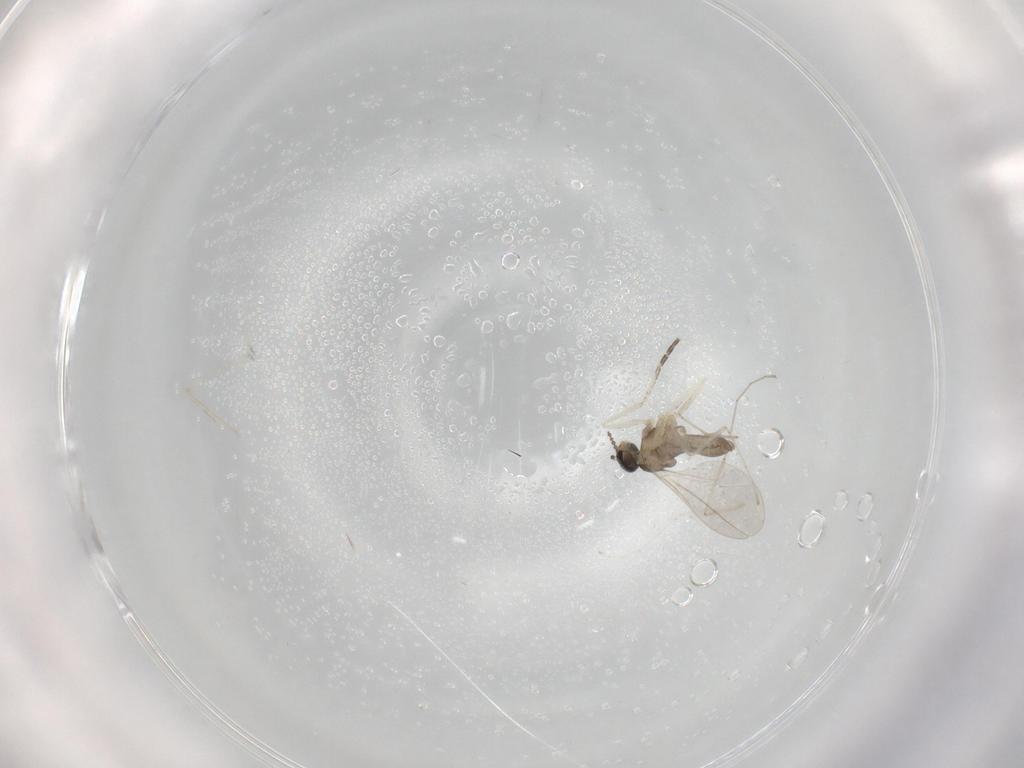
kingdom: Animalia
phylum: Arthropoda
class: Insecta
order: Diptera
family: Cecidomyiidae
